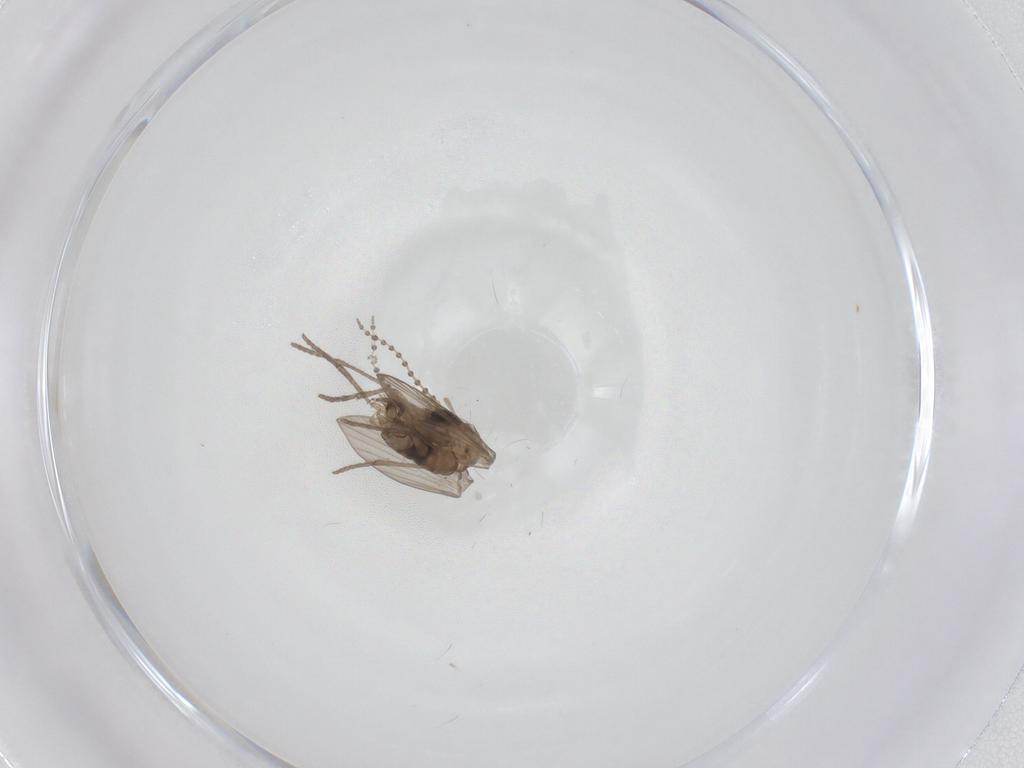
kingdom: Animalia
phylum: Arthropoda
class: Insecta
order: Diptera
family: Psychodidae
